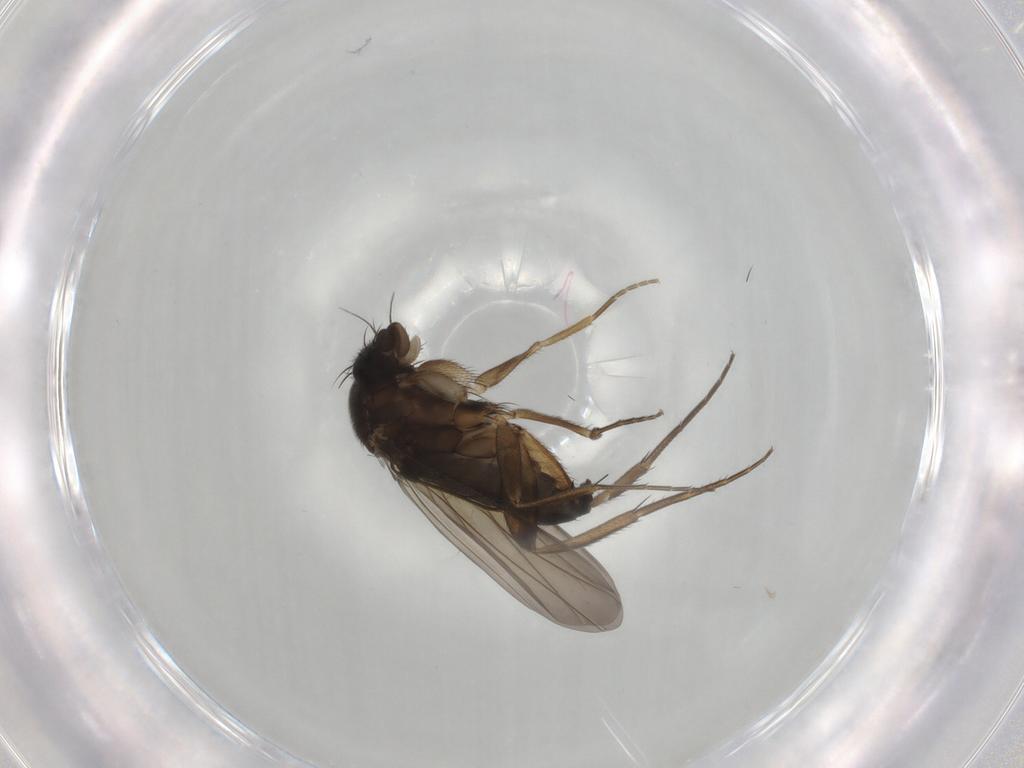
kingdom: Animalia
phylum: Arthropoda
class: Insecta
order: Diptera
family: Phoridae
